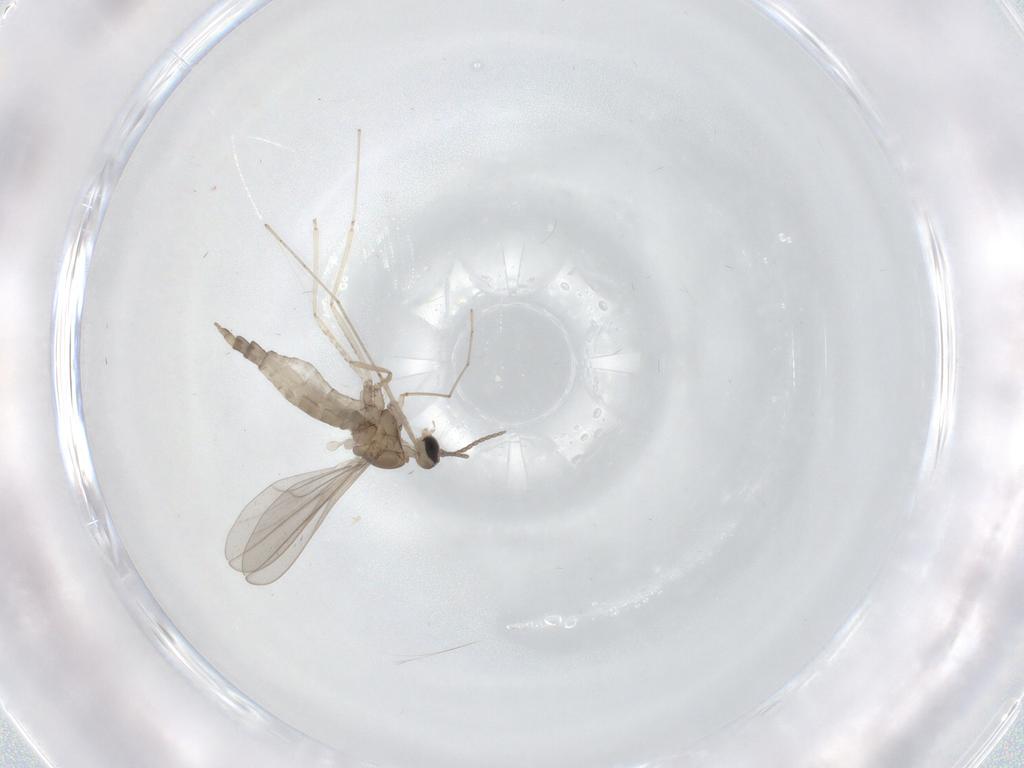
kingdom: Animalia
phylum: Arthropoda
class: Insecta
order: Diptera
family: Cecidomyiidae
